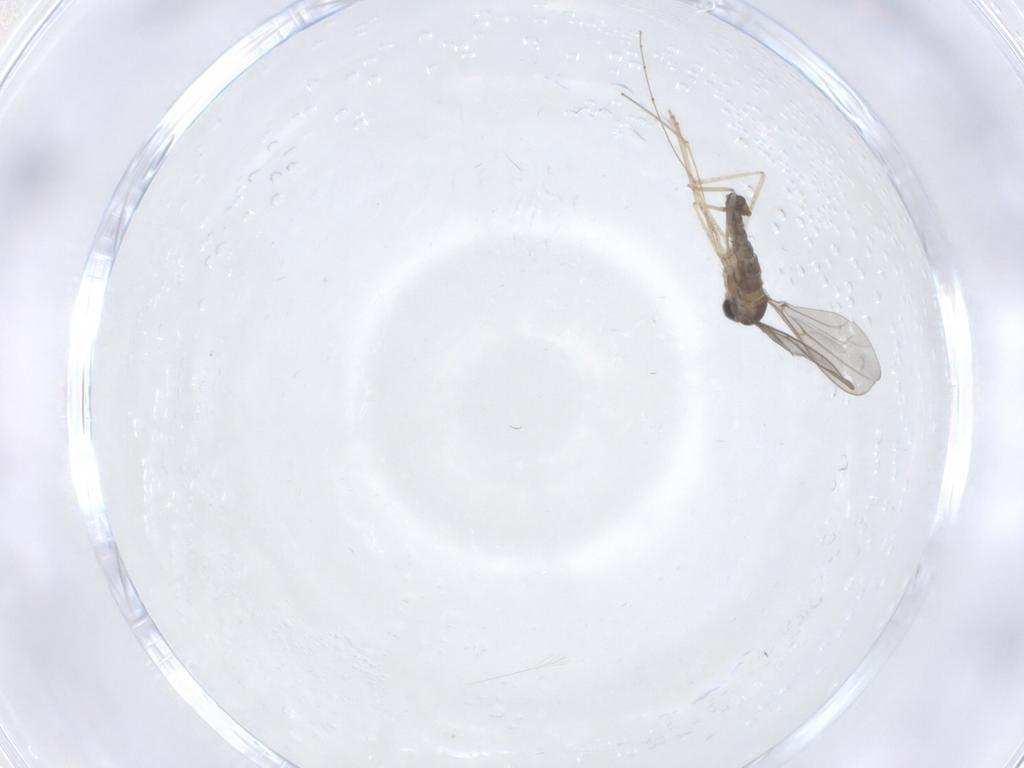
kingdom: Animalia
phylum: Arthropoda
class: Insecta
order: Diptera
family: Cecidomyiidae
